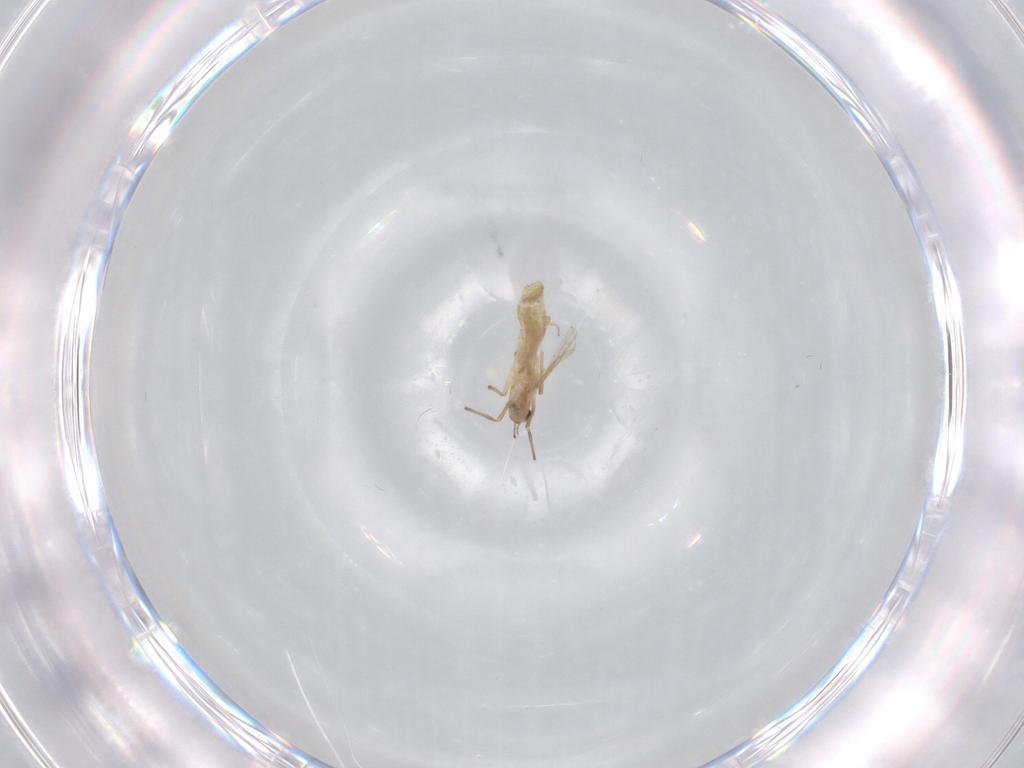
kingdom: Animalia
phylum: Arthropoda
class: Insecta
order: Diptera
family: Chironomidae
